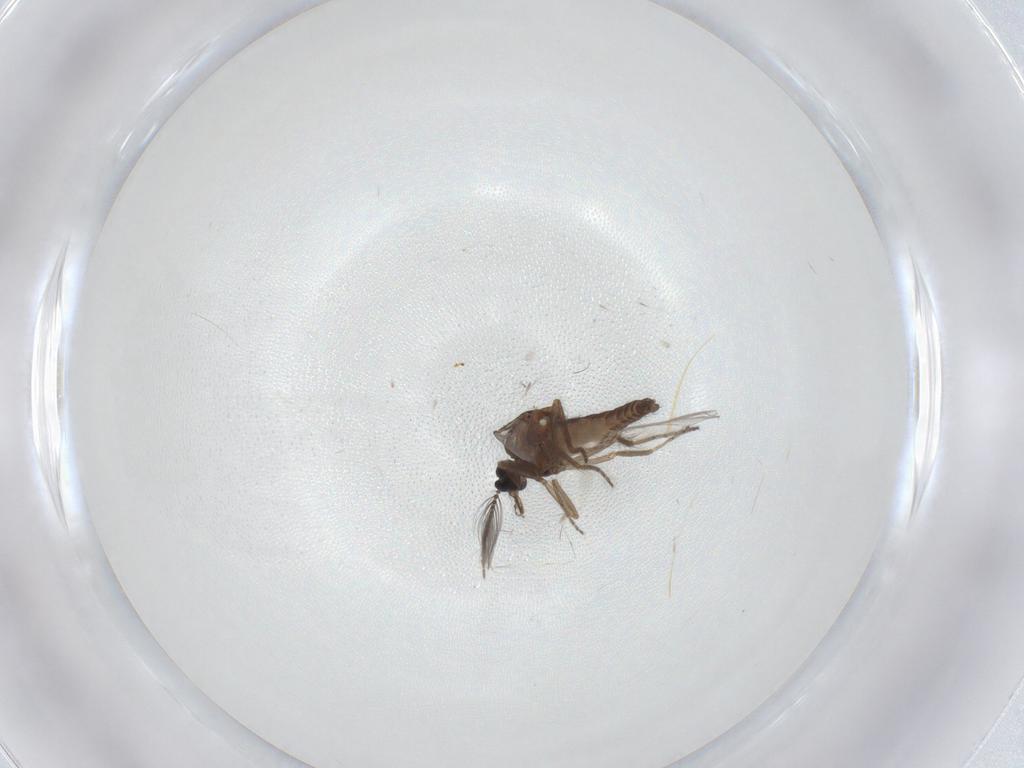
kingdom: Animalia
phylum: Arthropoda
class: Insecta
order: Diptera
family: Ceratopogonidae
